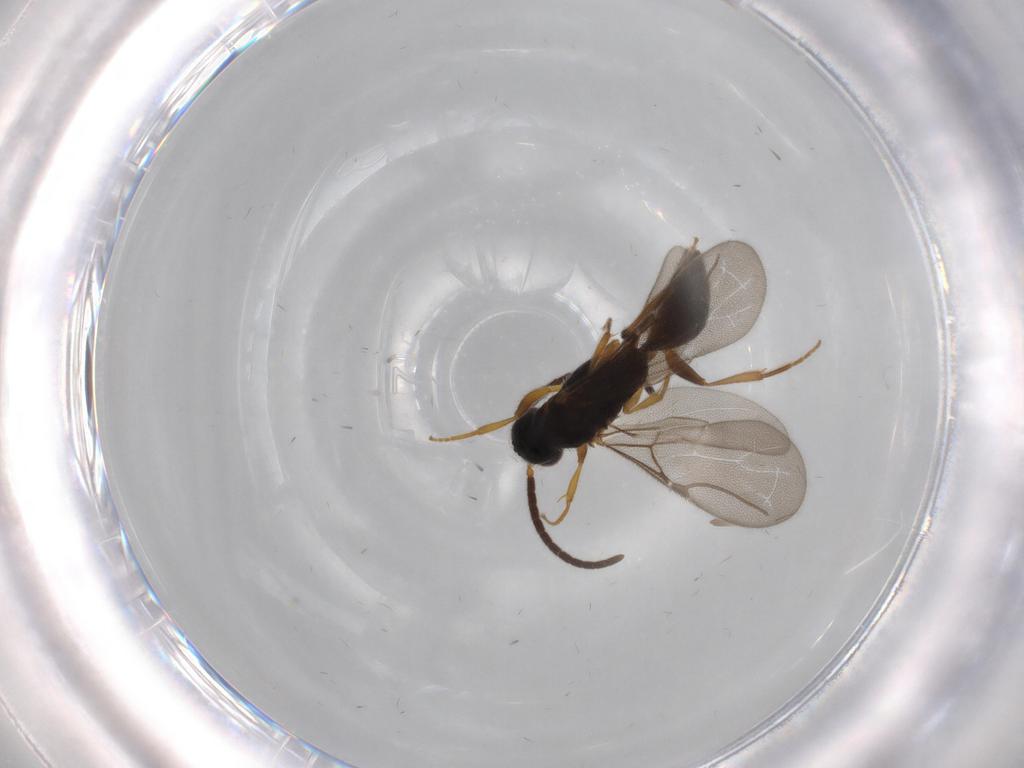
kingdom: Animalia
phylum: Arthropoda
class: Insecta
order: Hymenoptera
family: Bethylidae
